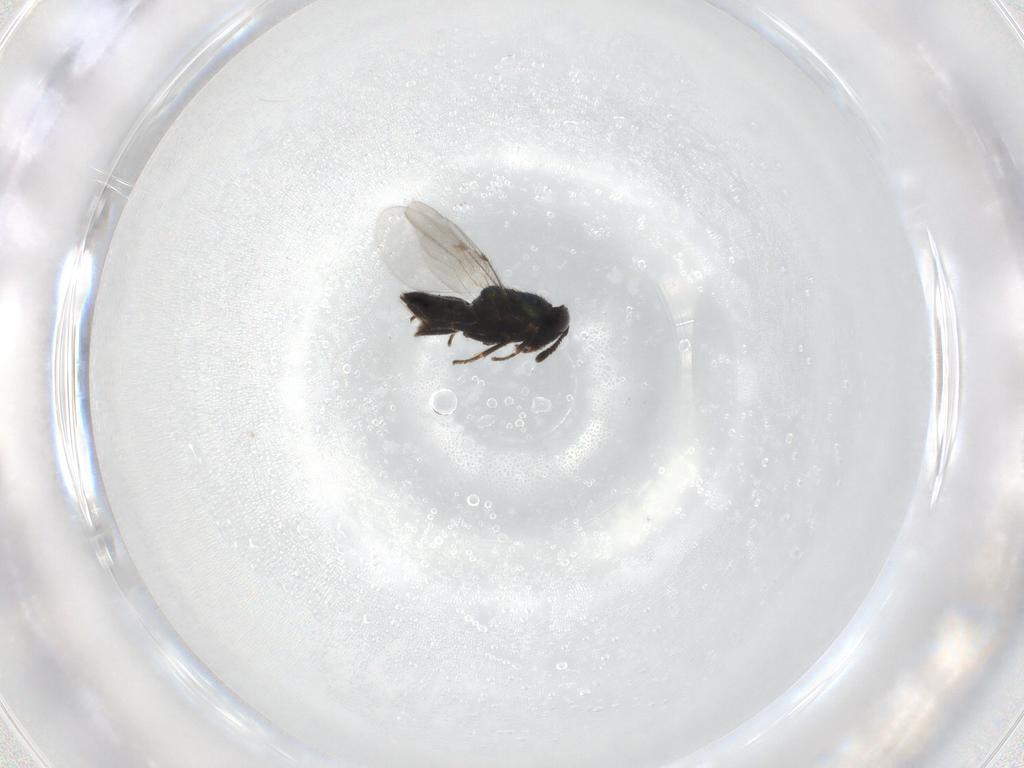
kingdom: Animalia
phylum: Arthropoda
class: Insecta
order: Hymenoptera
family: Encyrtidae
